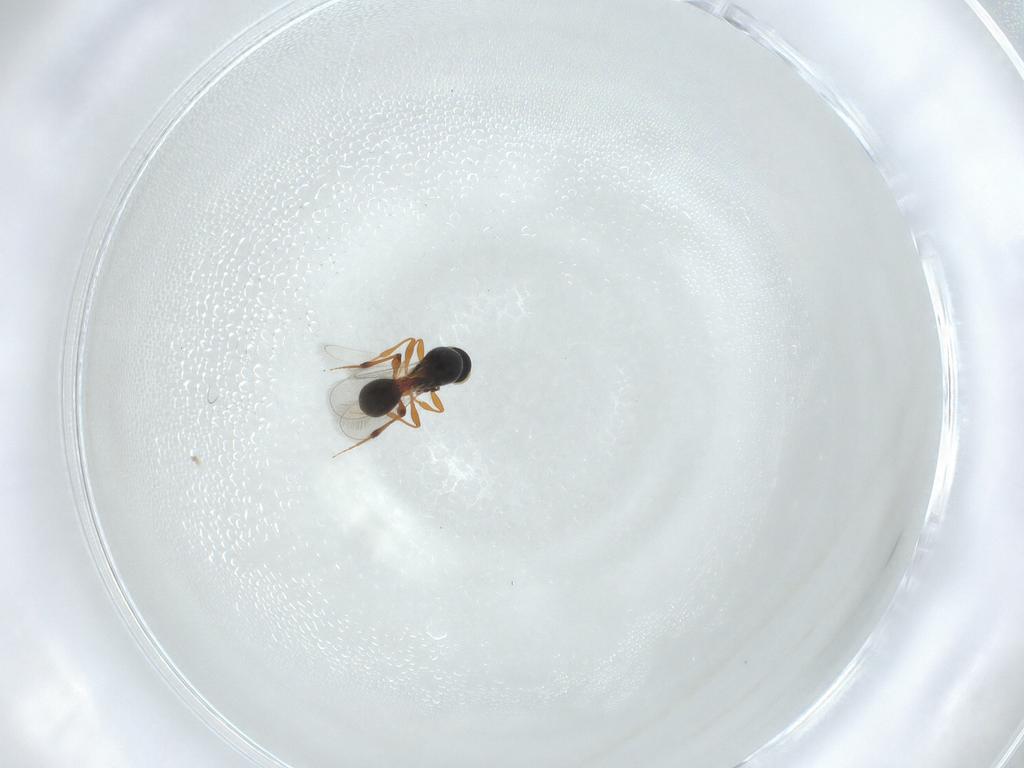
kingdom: Animalia
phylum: Arthropoda
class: Insecta
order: Hymenoptera
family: Platygastridae
